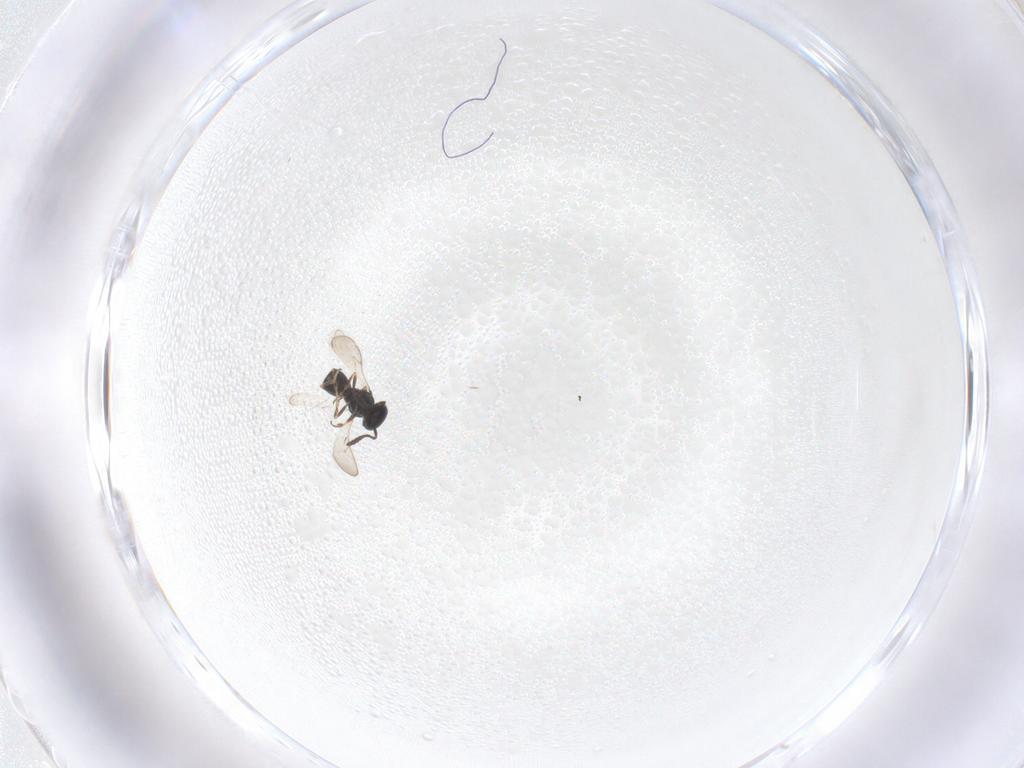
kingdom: Animalia
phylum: Arthropoda
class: Insecta
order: Hymenoptera
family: Scelionidae
